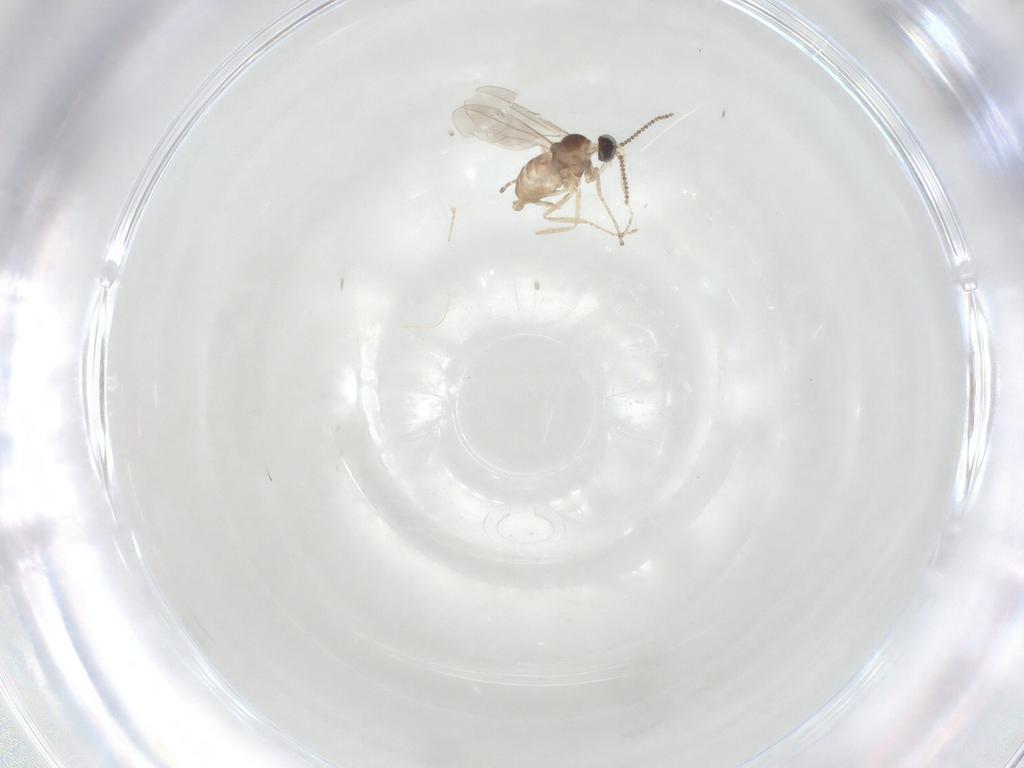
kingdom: Animalia
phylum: Arthropoda
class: Insecta
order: Diptera
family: Cecidomyiidae
